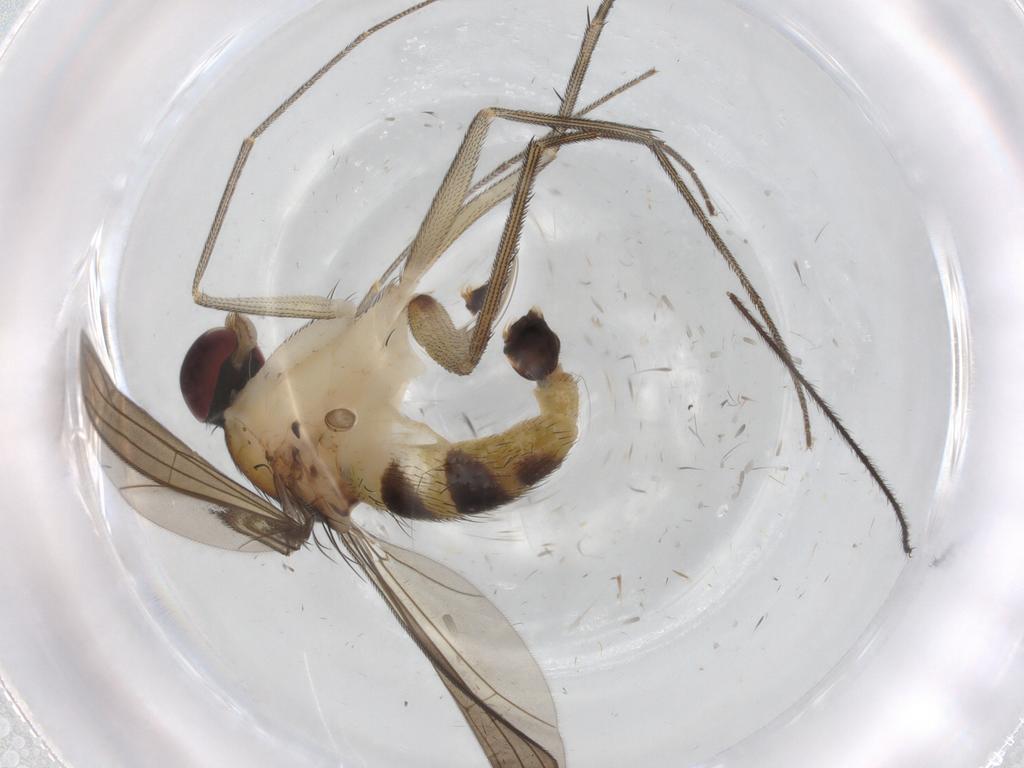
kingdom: Animalia
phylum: Arthropoda
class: Insecta
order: Diptera
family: Dolichopodidae
